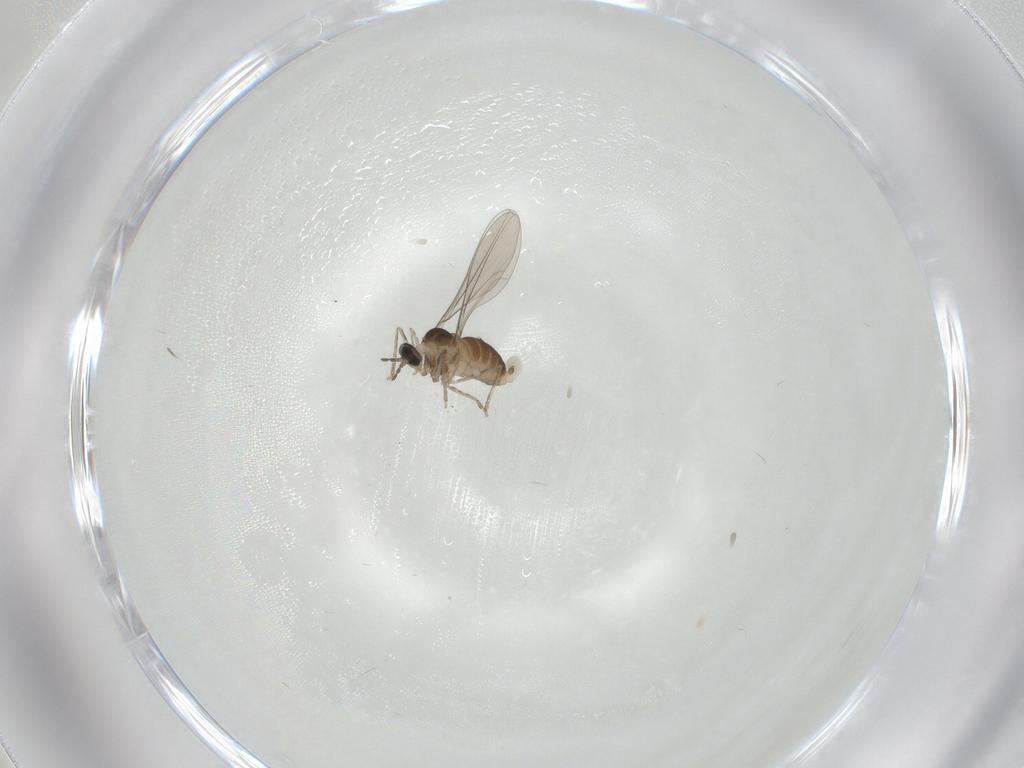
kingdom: Animalia
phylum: Arthropoda
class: Insecta
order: Diptera
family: Cecidomyiidae
